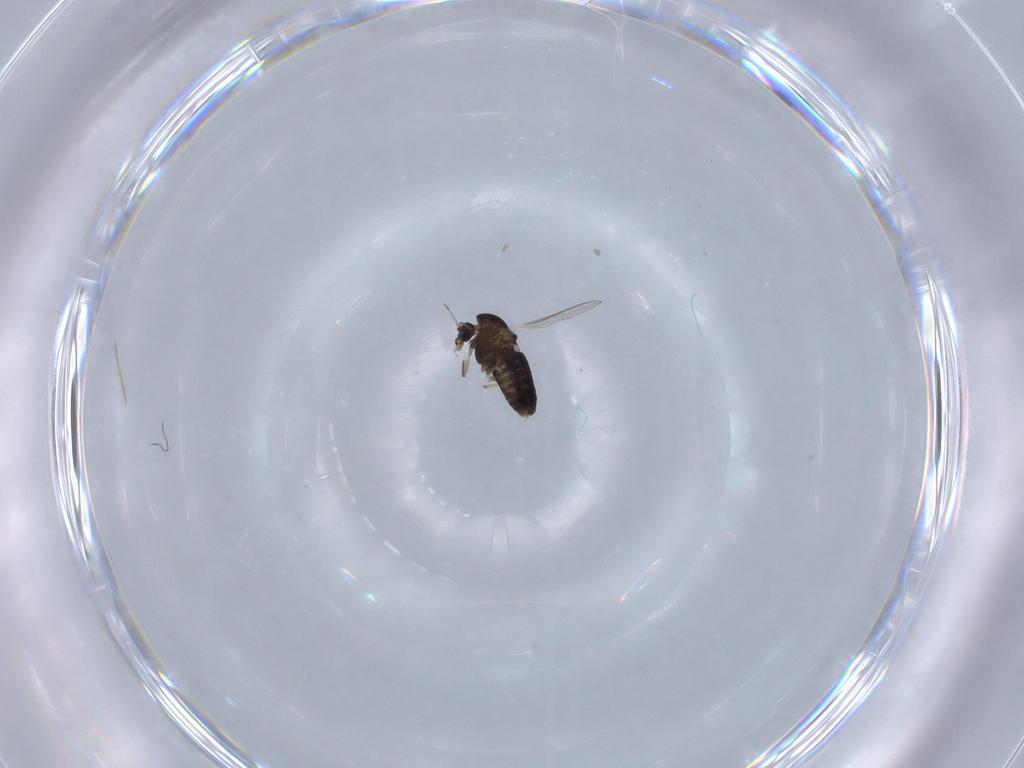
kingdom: Animalia
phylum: Arthropoda
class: Insecta
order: Diptera
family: Chironomidae
